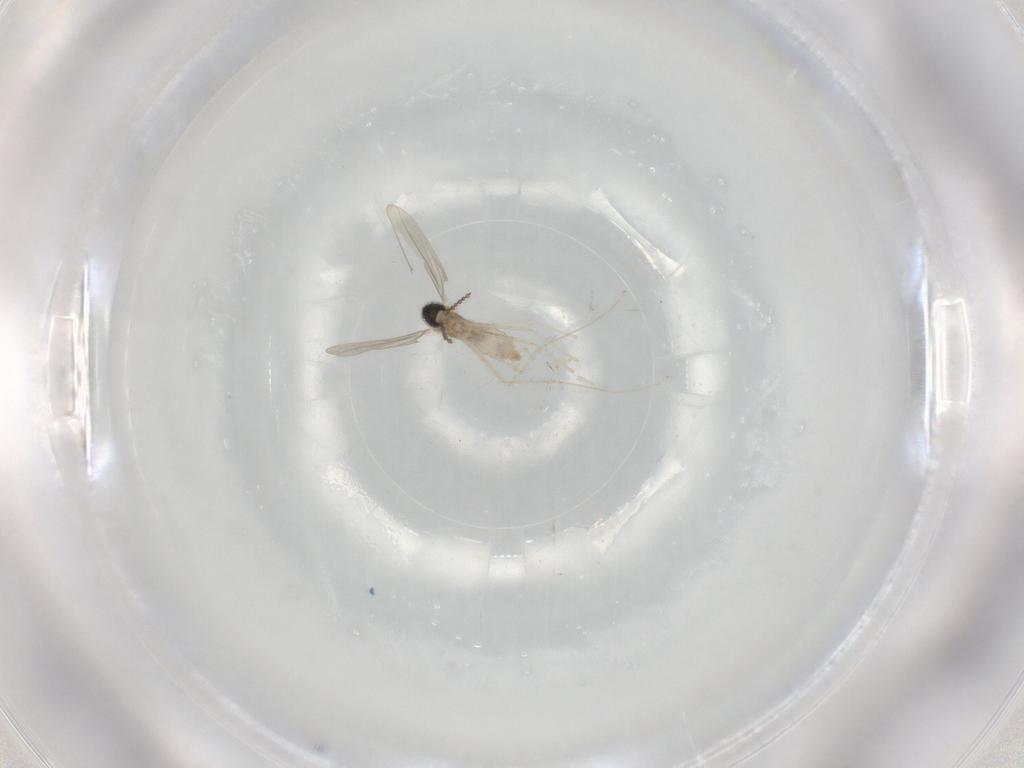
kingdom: Animalia
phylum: Arthropoda
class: Insecta
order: Diptera
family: Cecidomyiidae
